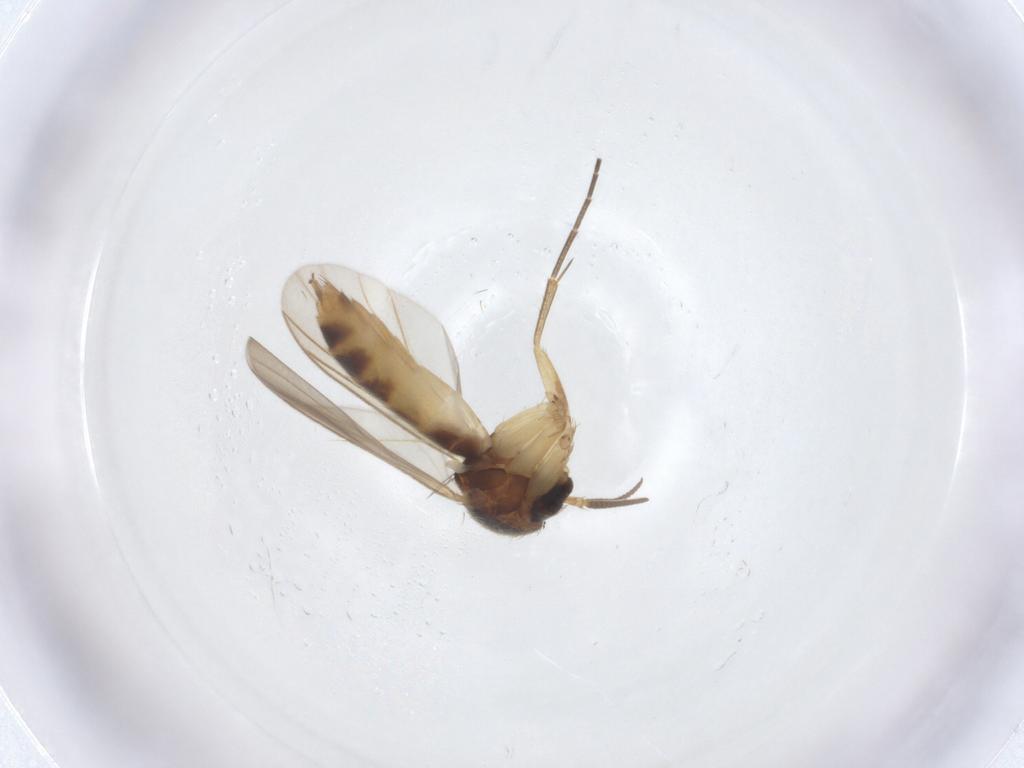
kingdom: Animalia
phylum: Arthropoda
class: Insecta
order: Diptera
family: Mycetophilidae
